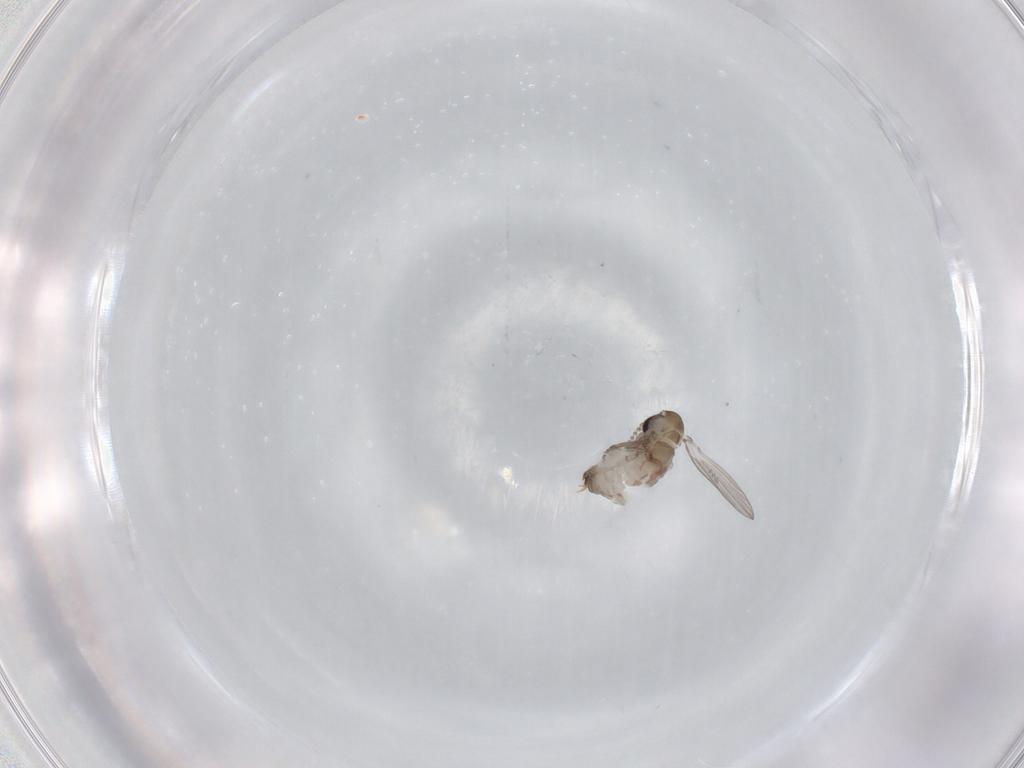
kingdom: Animalia
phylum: Arthropoda
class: Insecta
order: Diptera
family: Psychodidae
